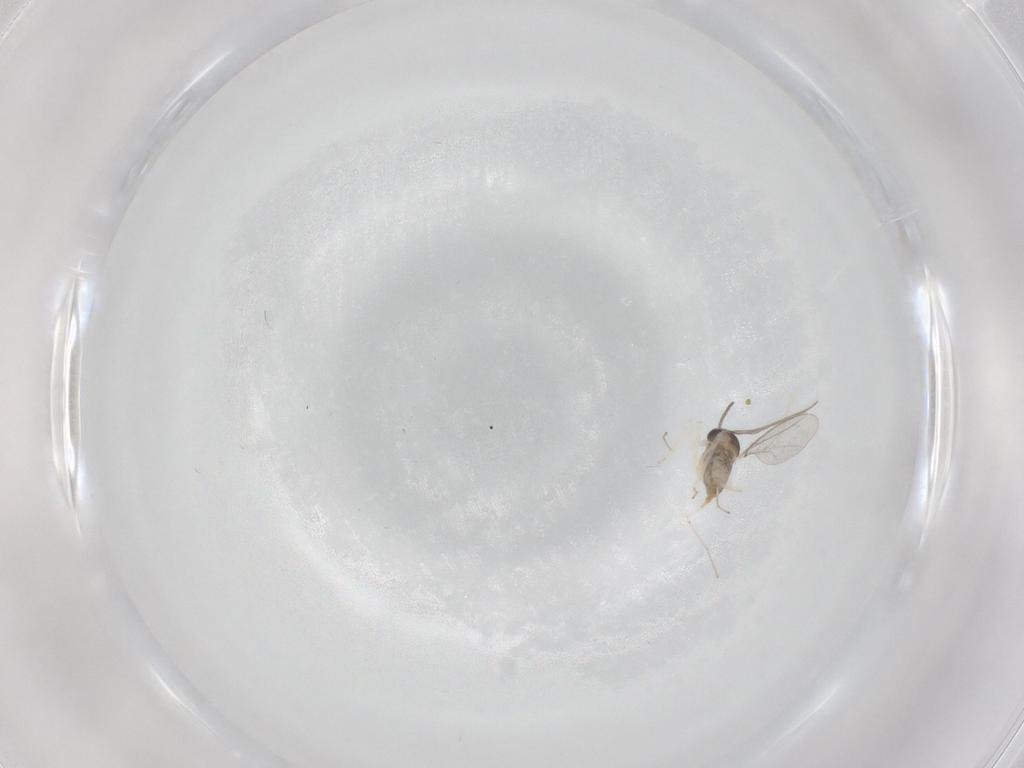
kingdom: Animalia
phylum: Arthropoda
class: Insecta
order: Diptera
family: Cecidomyiidae
